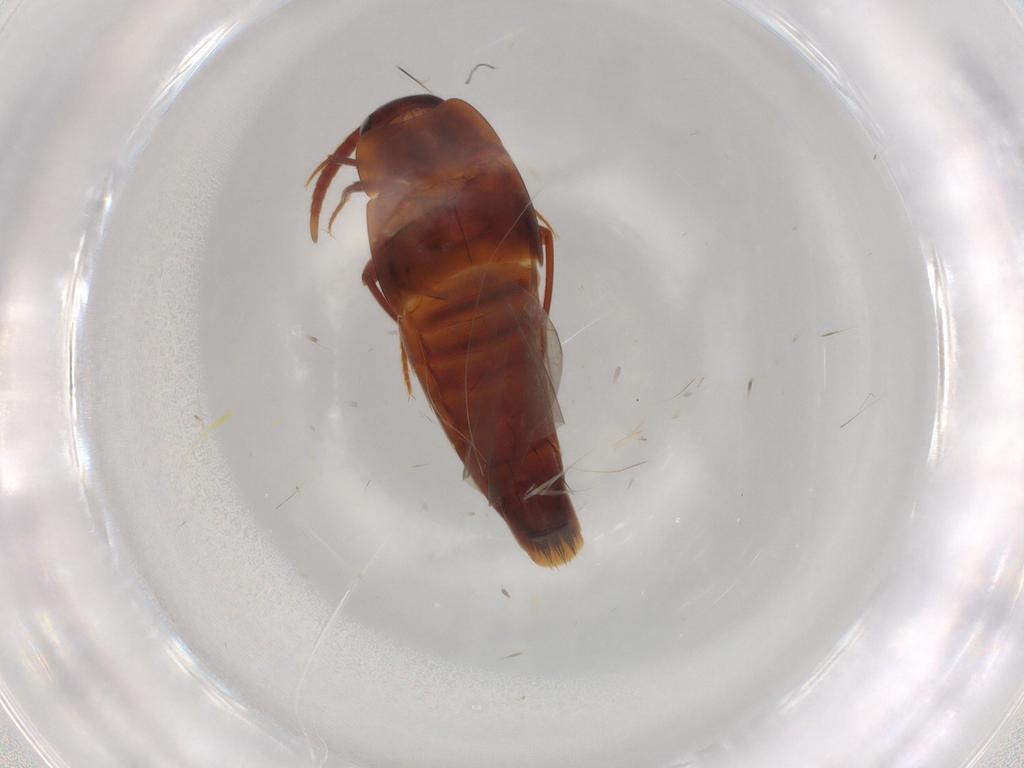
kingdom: Animalia
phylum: Arthropoda
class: Insecta
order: Coleoptera
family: Staphylinidae
